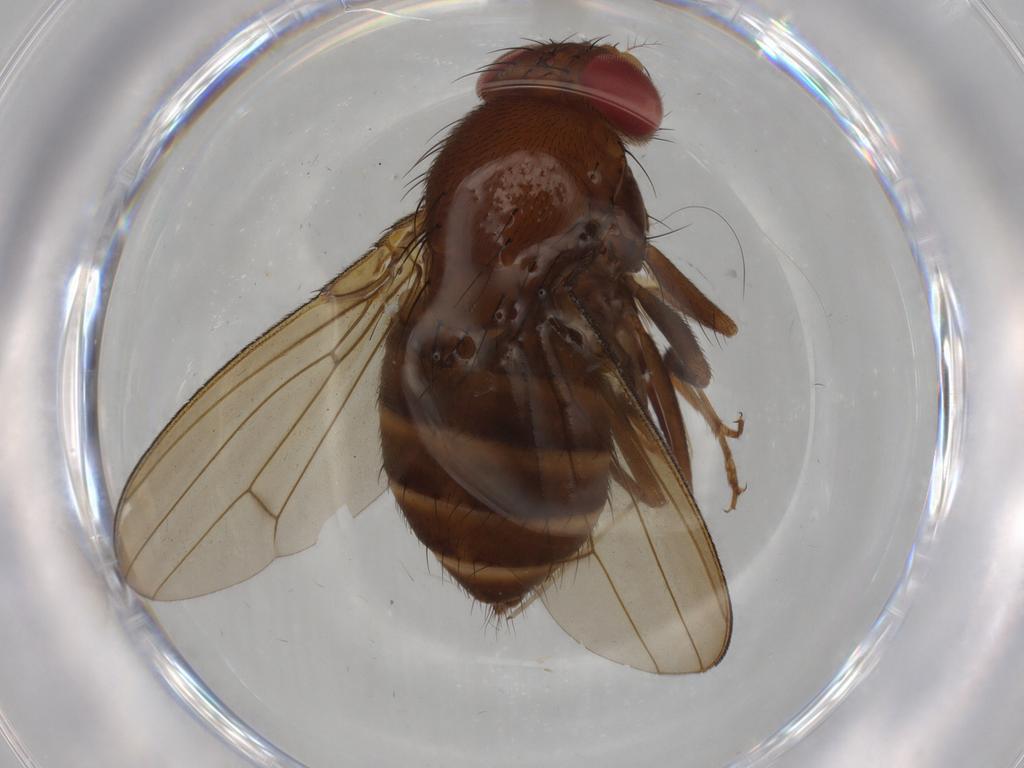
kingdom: Animalia
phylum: Arthropoda
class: Insecta
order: Diptera
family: Drosophilidae
